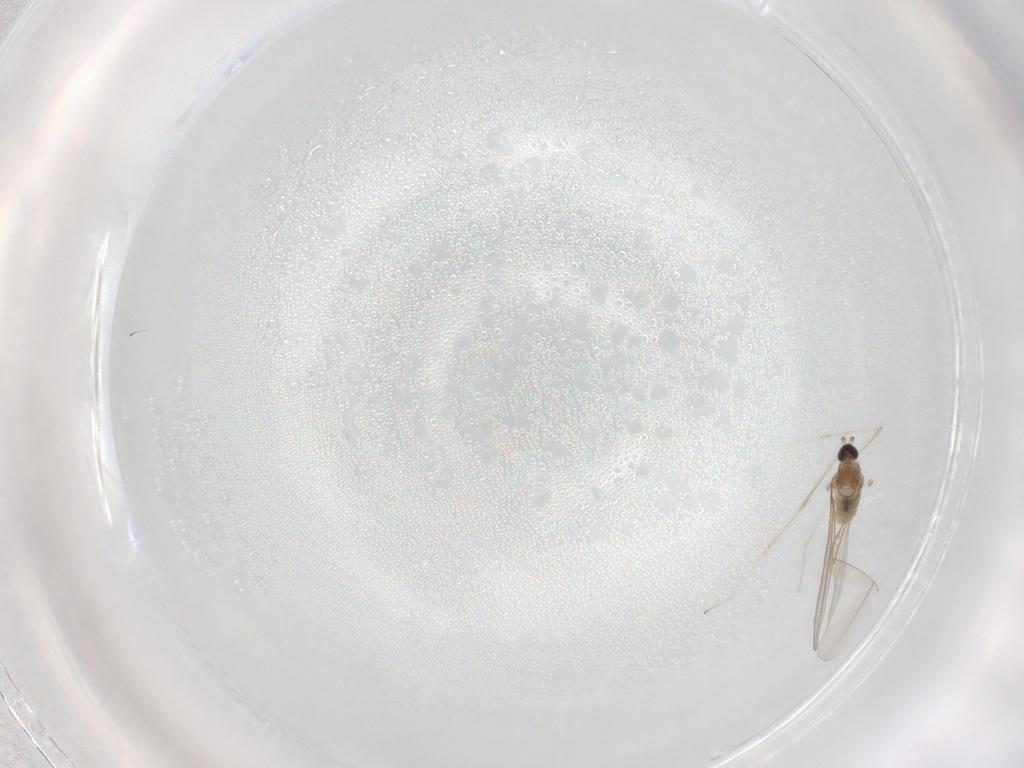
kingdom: Animalia
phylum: Arthropoda
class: Insecta
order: Diptera
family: Cecidomyiidae
